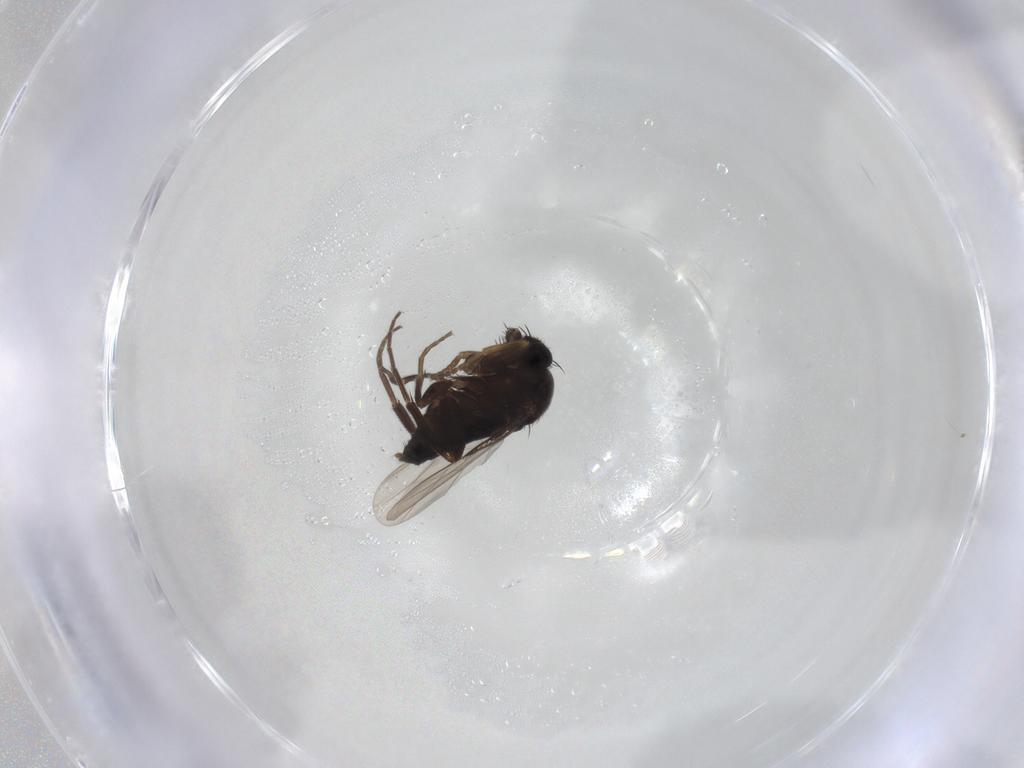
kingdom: Animalia
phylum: Arthropoda
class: Insecta
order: Diptera
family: Phoridae
